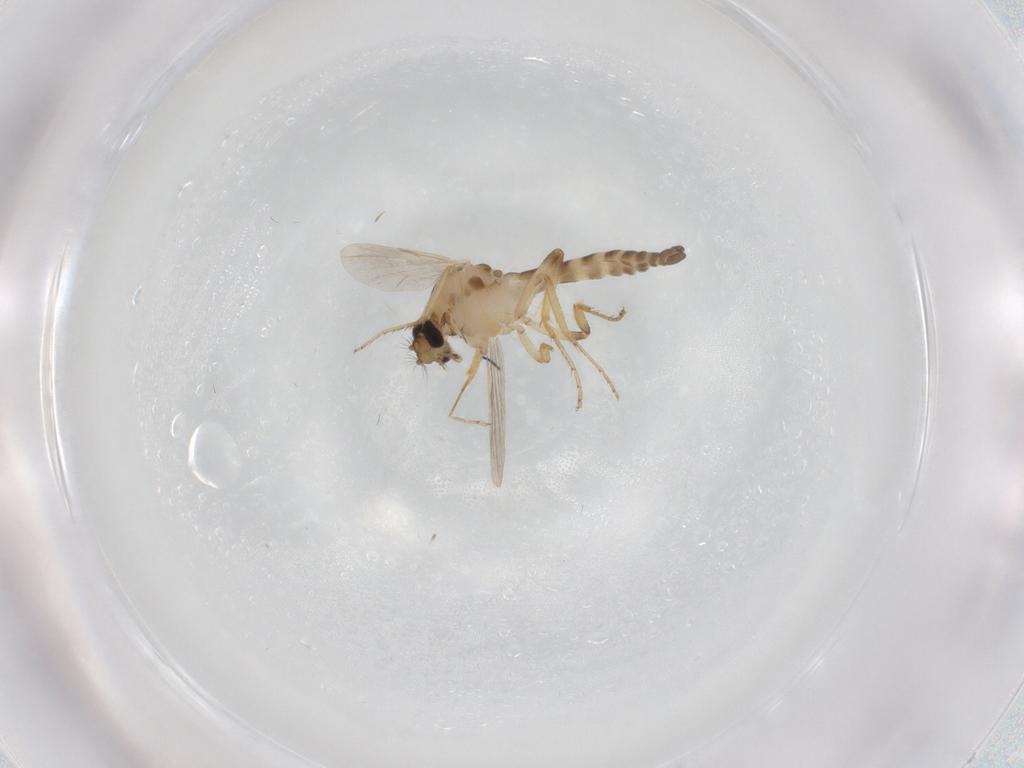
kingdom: Animalia
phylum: Arthropoda
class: Insecta
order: Diptera
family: Ceratopogonidae
